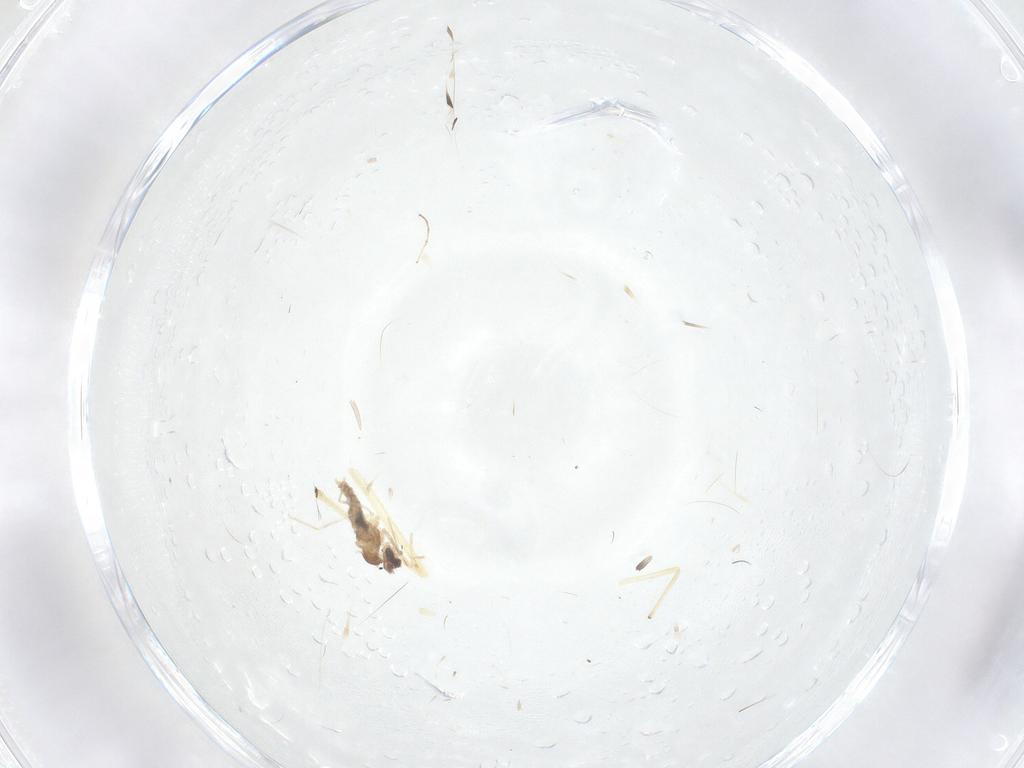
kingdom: Animalia
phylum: Arthropoda
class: Insecta
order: Diptera
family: Cecidomyiidae
